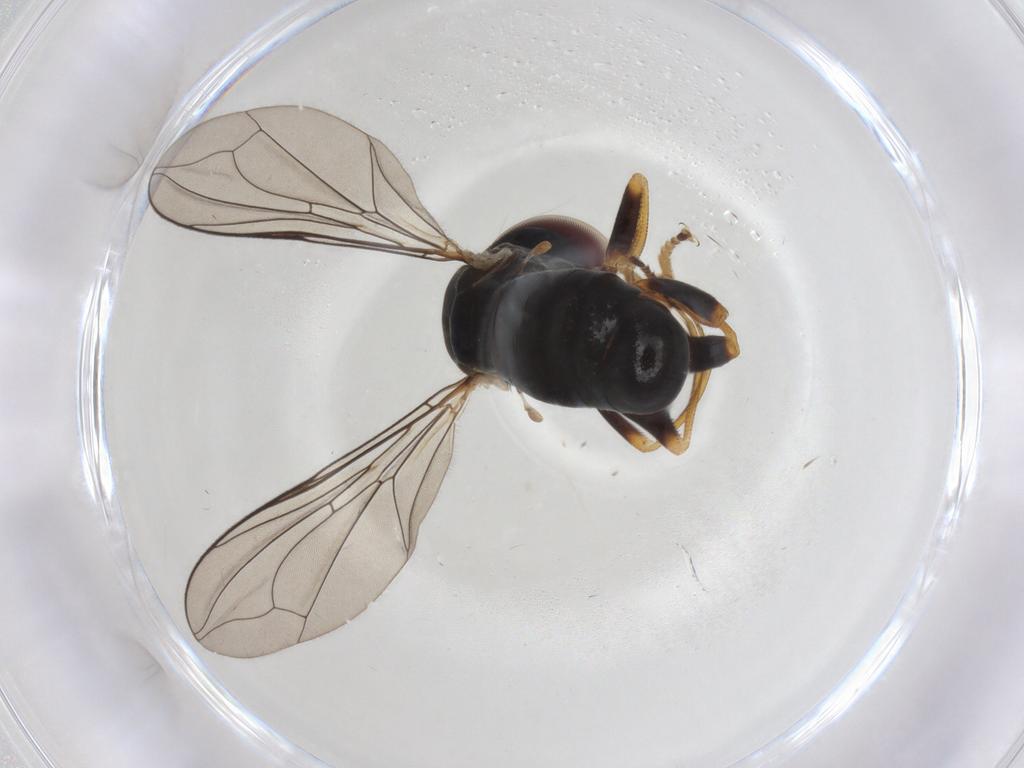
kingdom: Animalia
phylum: Arthropoda
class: Insecta
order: Diptera
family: Pipunculidae
